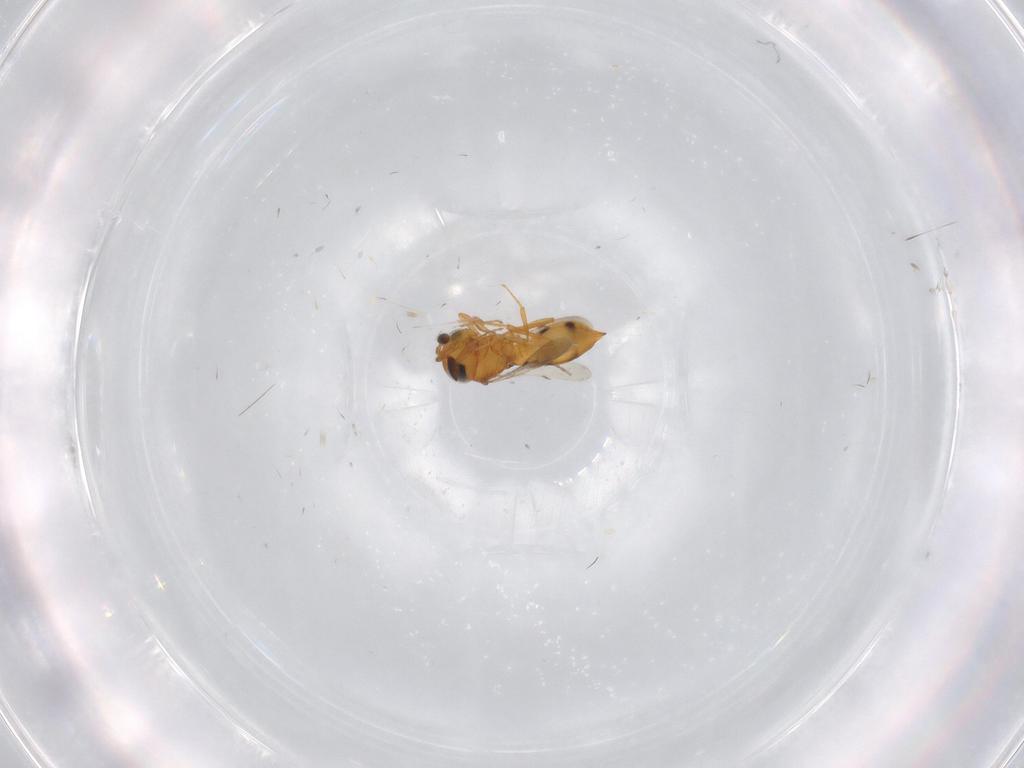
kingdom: Animalia
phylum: Arthropoda
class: Insecta
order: Hymenoptera
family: Scelionidae
